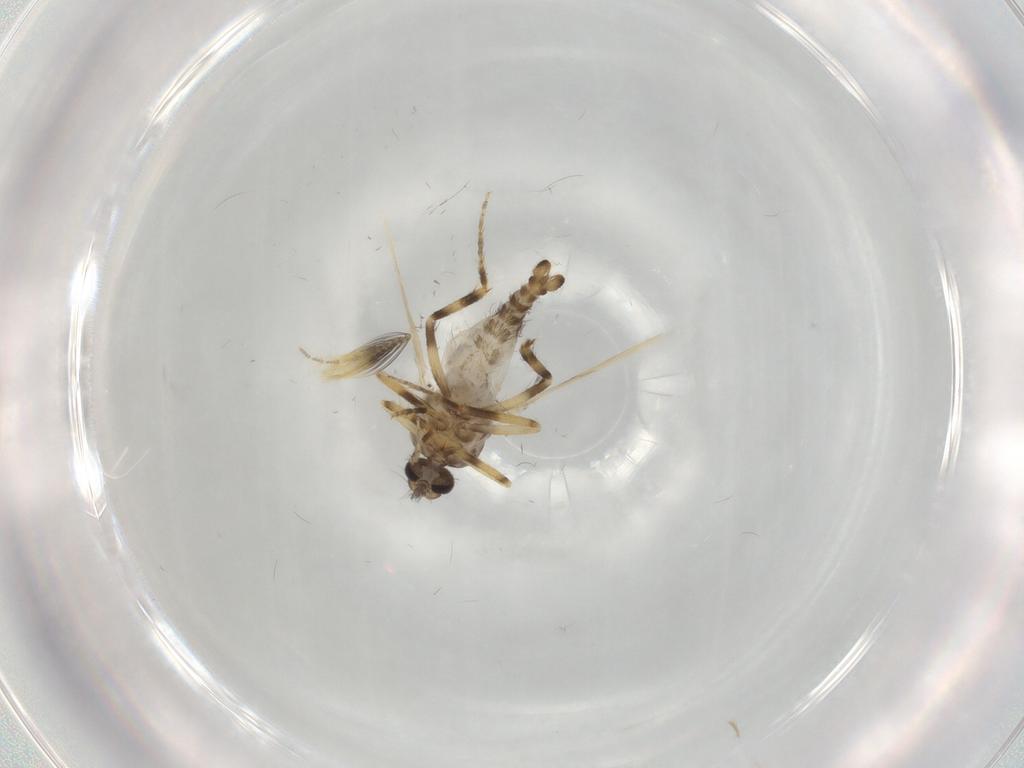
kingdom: Animalia
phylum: Arthropoda
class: Insecta
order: Diptera
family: Ceratopogonidae
